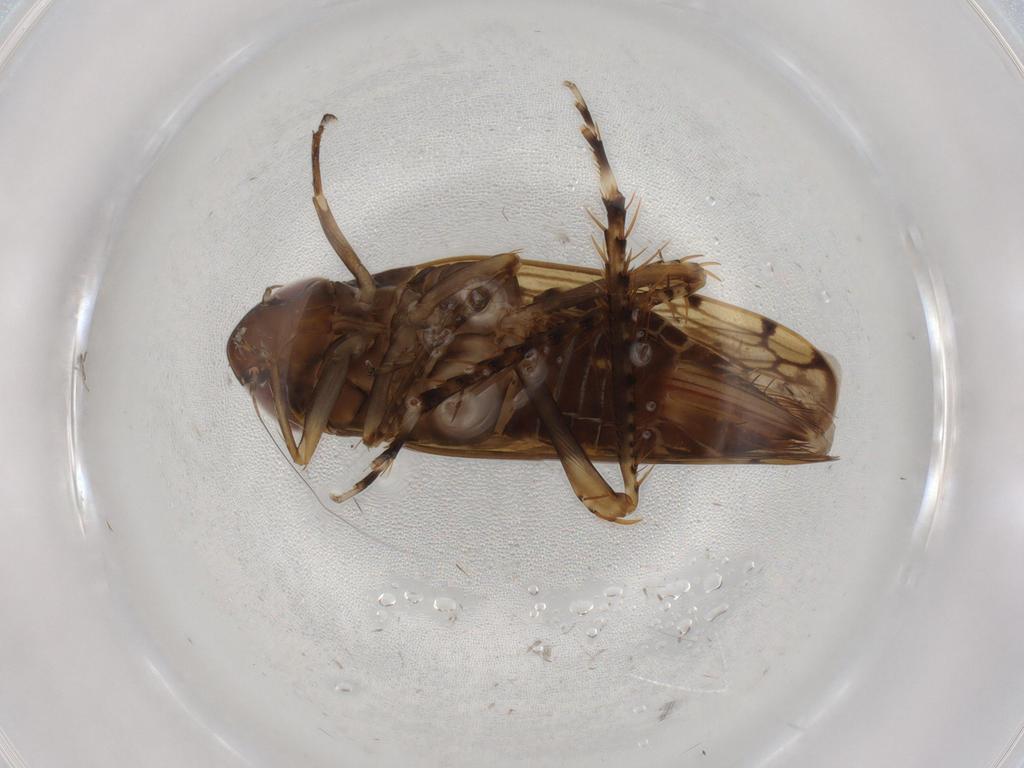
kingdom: Animalia
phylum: Arthropoda
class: Insecta
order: Hemiptera
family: Cicadellidae
